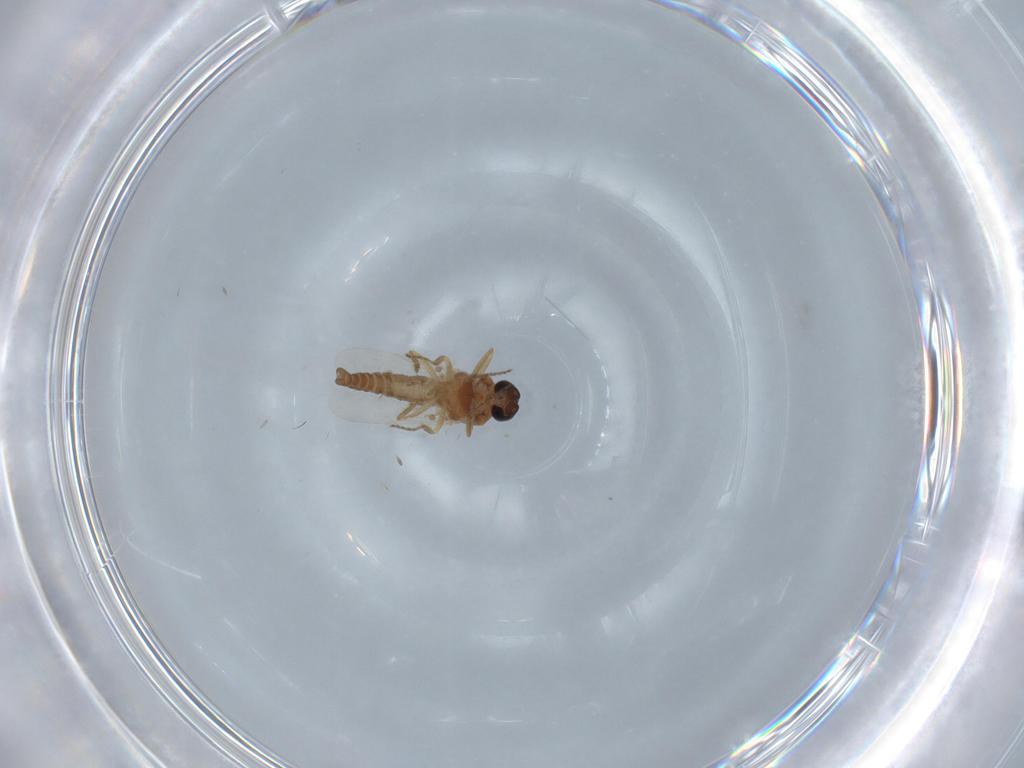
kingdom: Animalia
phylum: Arthropoda
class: Insecta
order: Diptera
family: Ceratopogonidae
